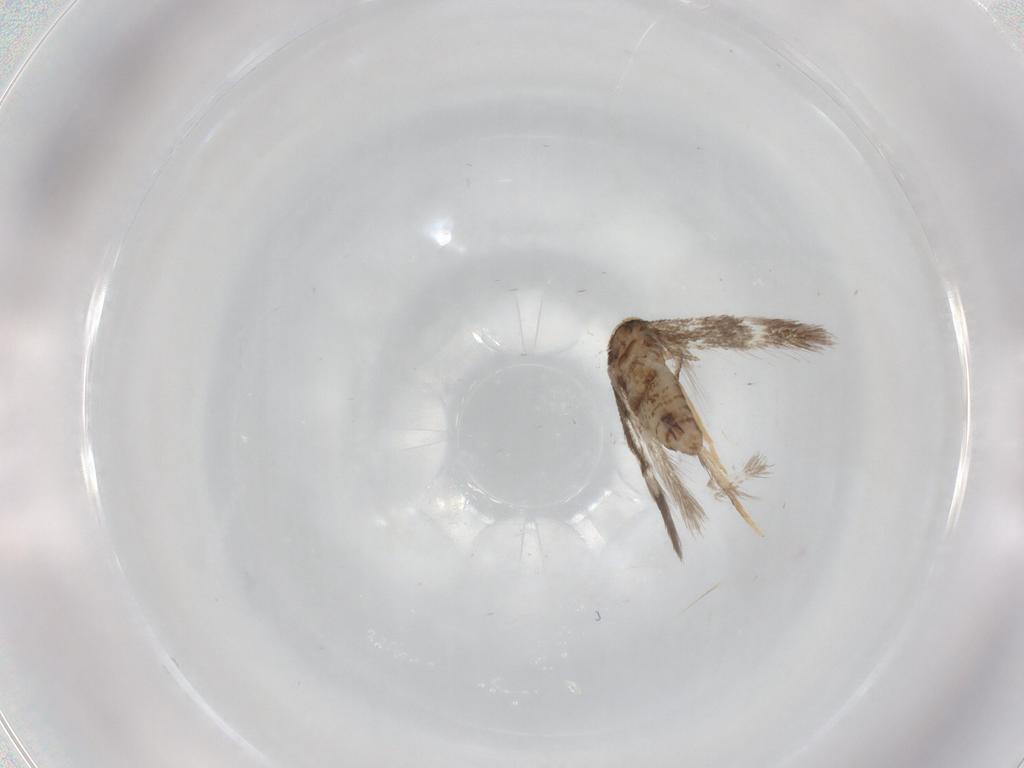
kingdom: Animalia
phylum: Arthropoda
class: Insecta
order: Lepidoptera
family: Nepticulidae
